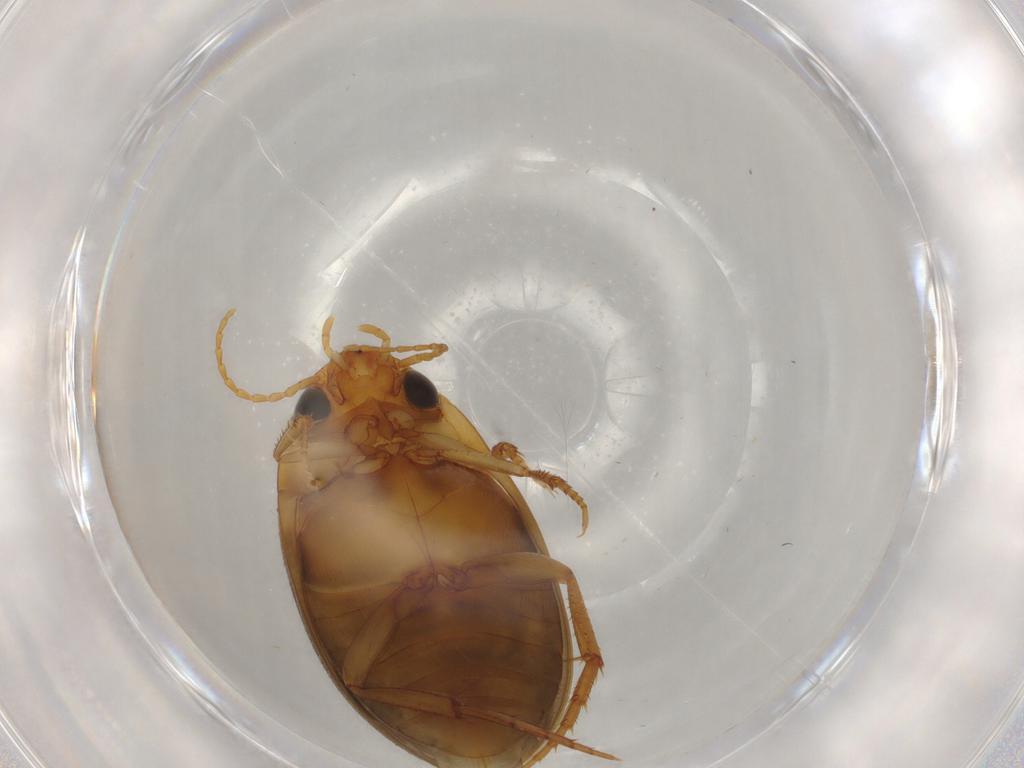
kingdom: Animalia
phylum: Arthropoda
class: Insecta
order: Coleoptera
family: Dytiscidae
